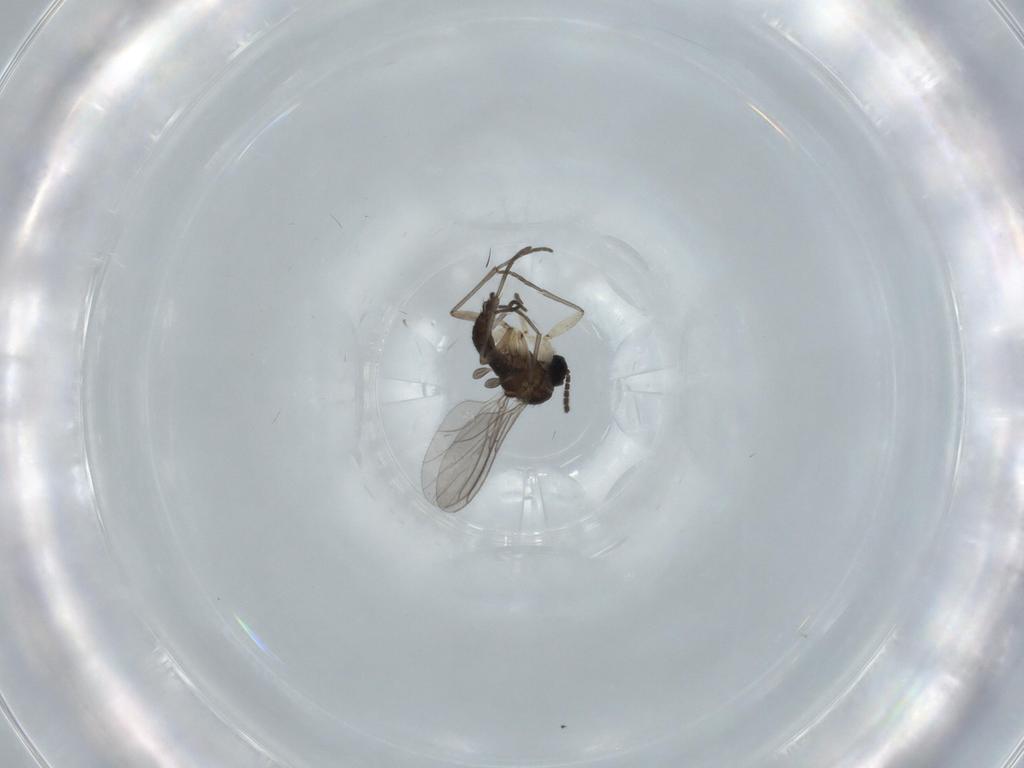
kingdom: Animalia
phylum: Arthropoda
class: Insecta
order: Diptera
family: Sciaridae
